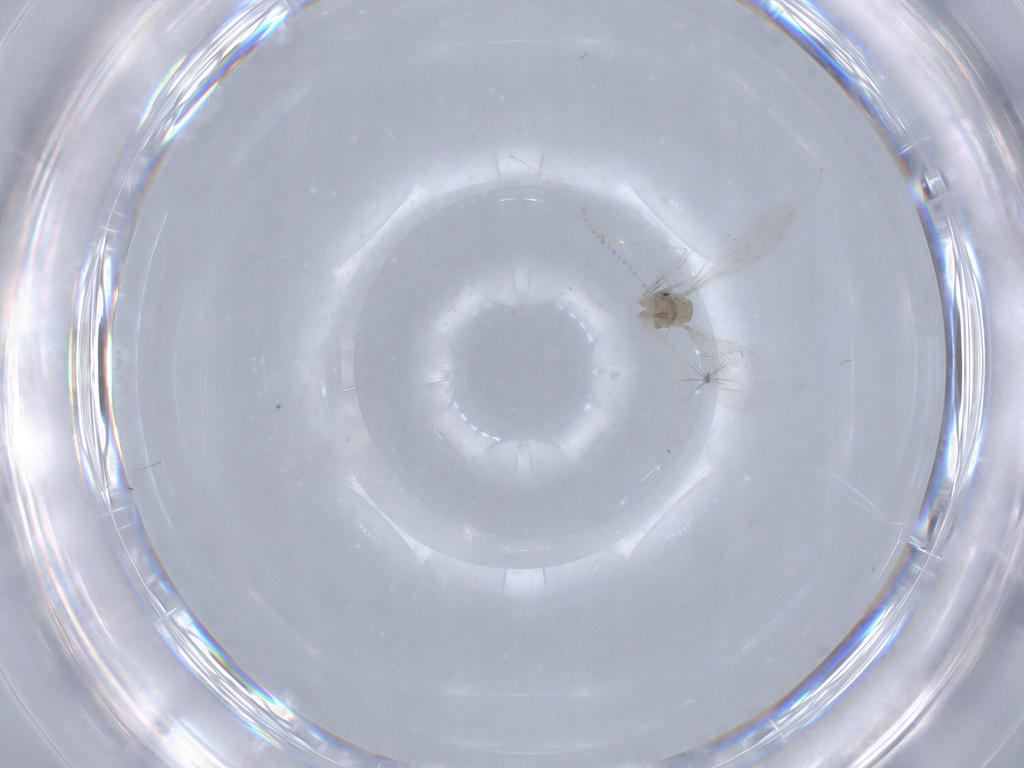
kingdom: Animalia
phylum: Arthropoda
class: Insecta
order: Diptera
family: Cecidomyiidae
